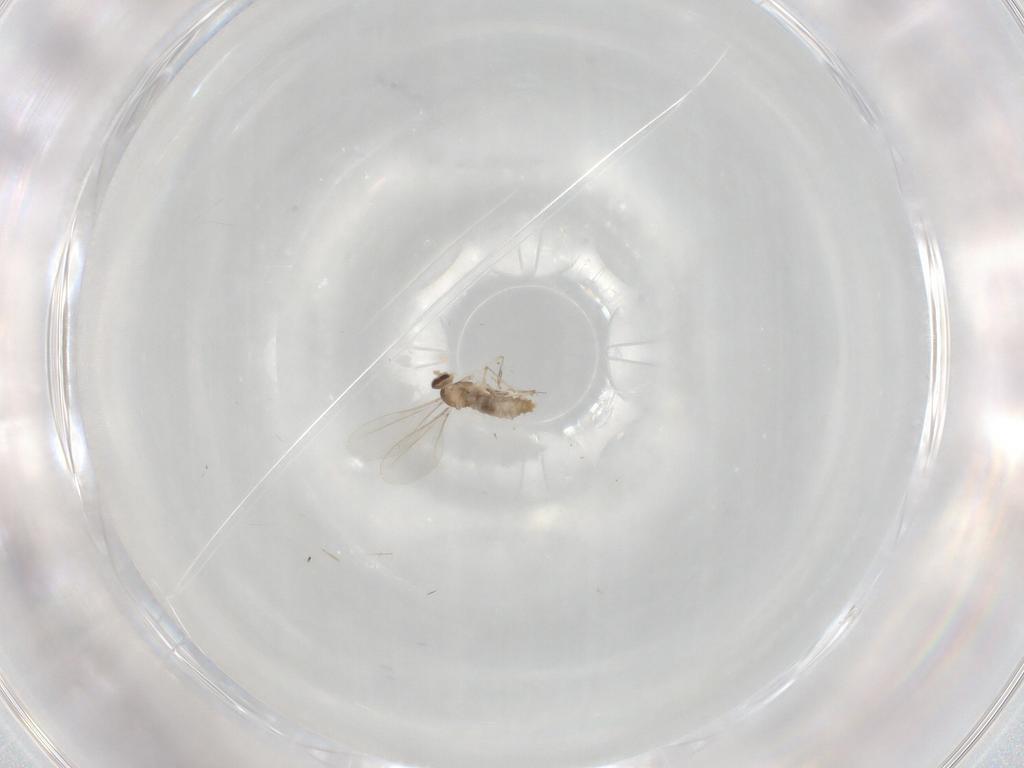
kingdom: Animalia
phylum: Arthropoda
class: Insecta
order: Diptera
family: Cecidomyiidae
